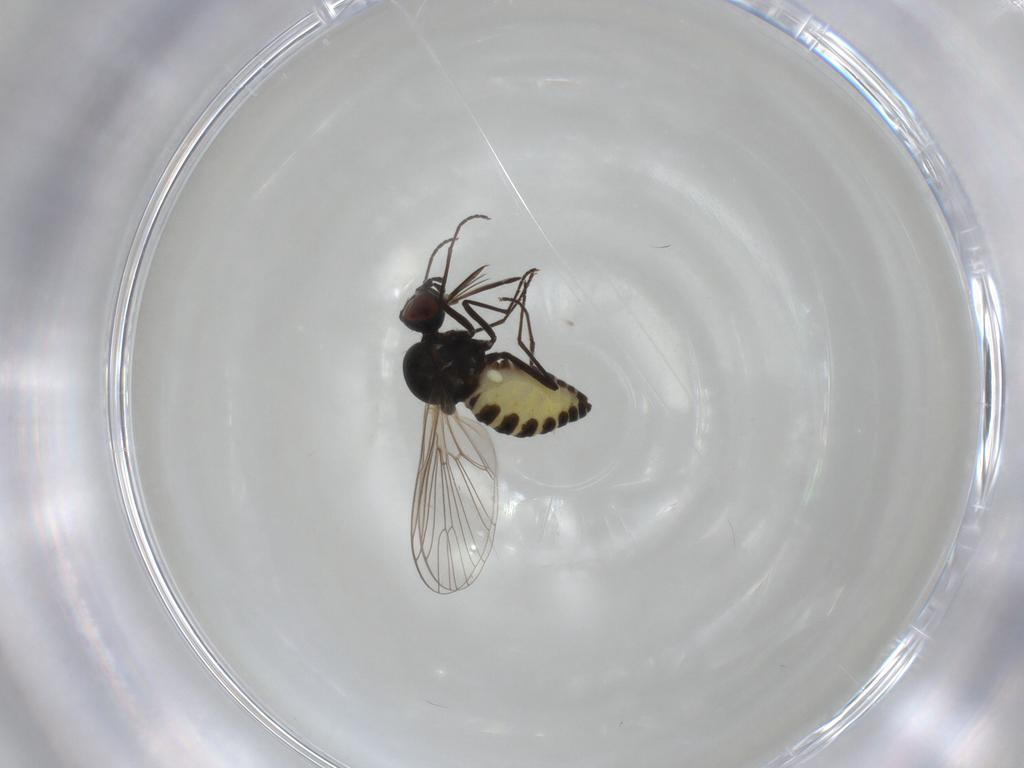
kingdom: Animalia
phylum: Arthropoda
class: Insecta
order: Diptera
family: Bombyliidae
